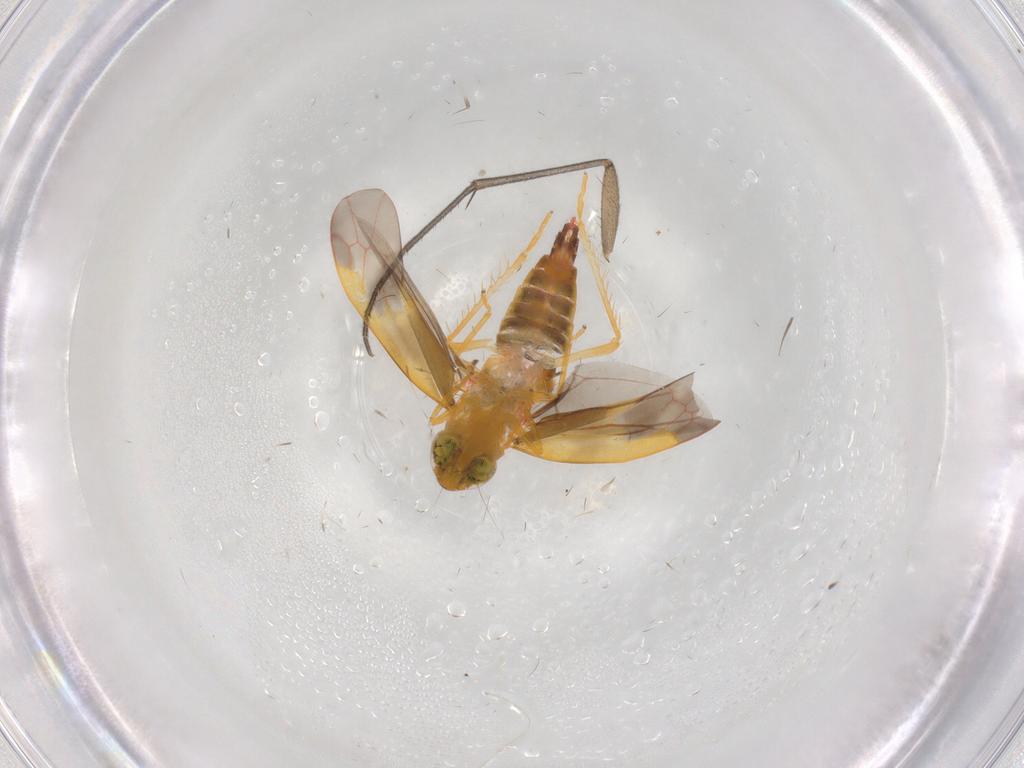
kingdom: Animalia
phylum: Arthropoda
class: Insecta
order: Hemiptera
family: Cicadellidae
